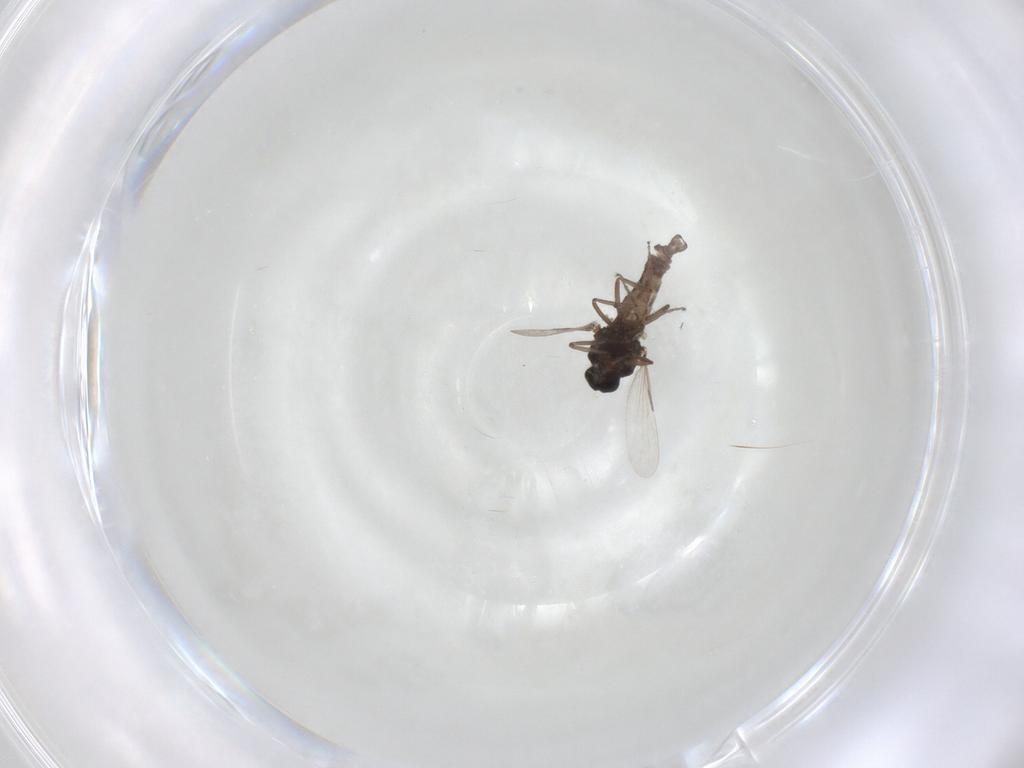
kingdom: Animalia
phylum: Arthropoda
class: Insecta
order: Diptera
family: Ceratopogonidae
